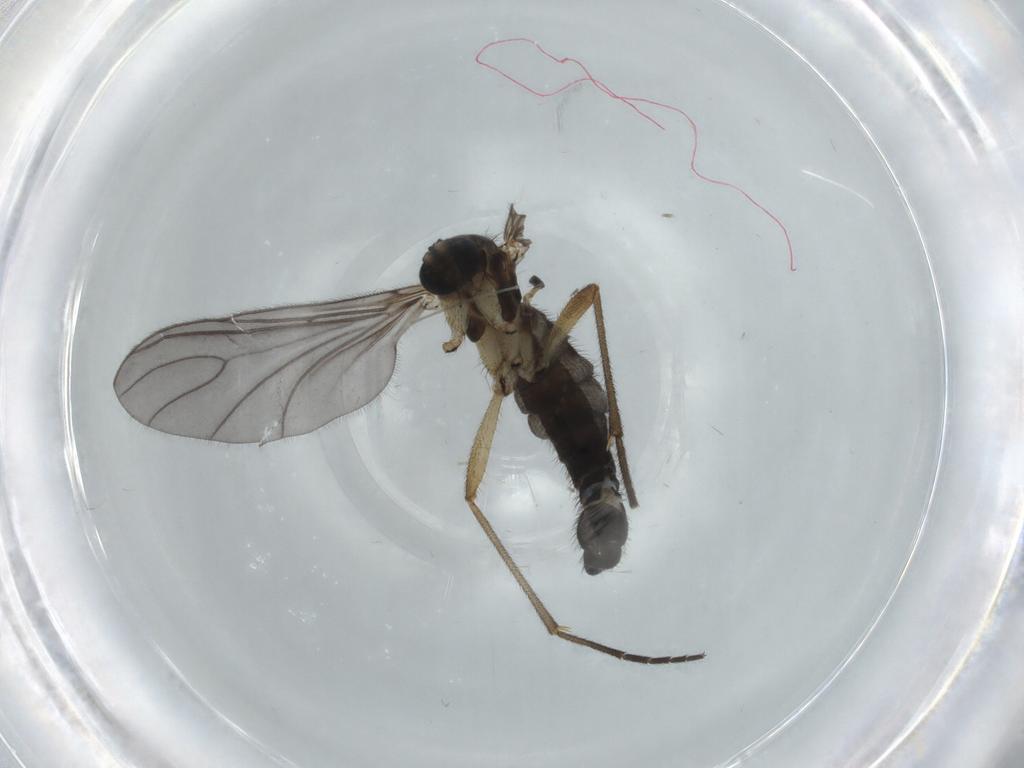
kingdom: Animalia
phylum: Arthropoda
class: Insecta
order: Diptera
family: Sciaridae
